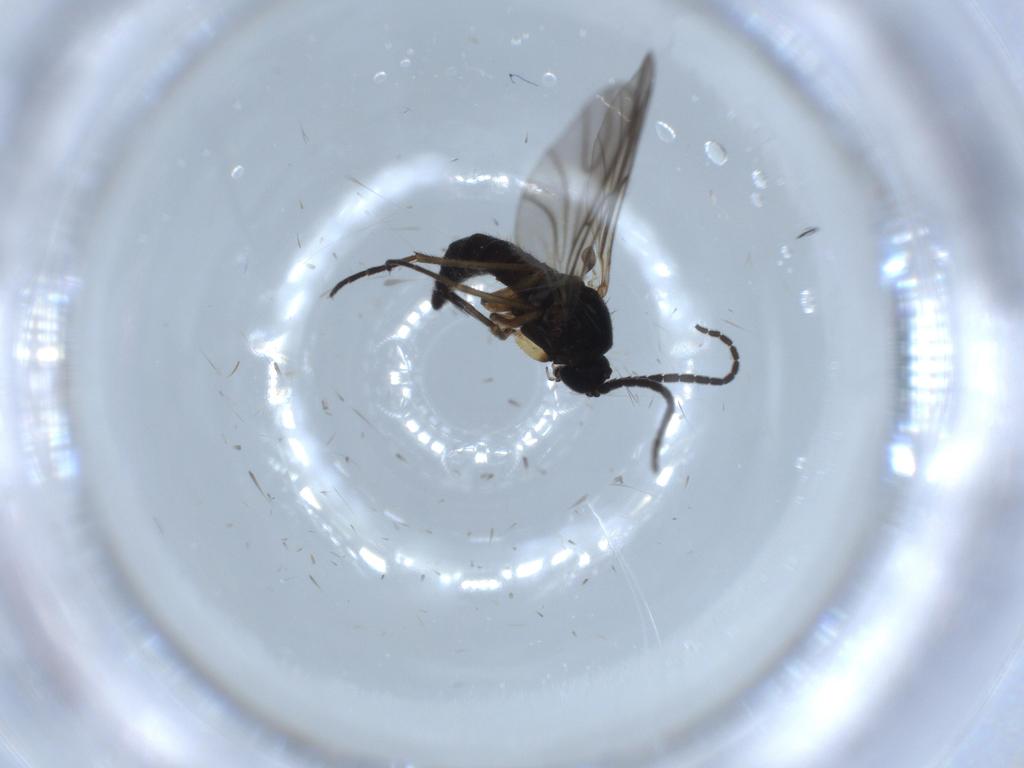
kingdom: Animalia
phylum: Arthropoda
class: Insecta
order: Diptera
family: Sciaridae
